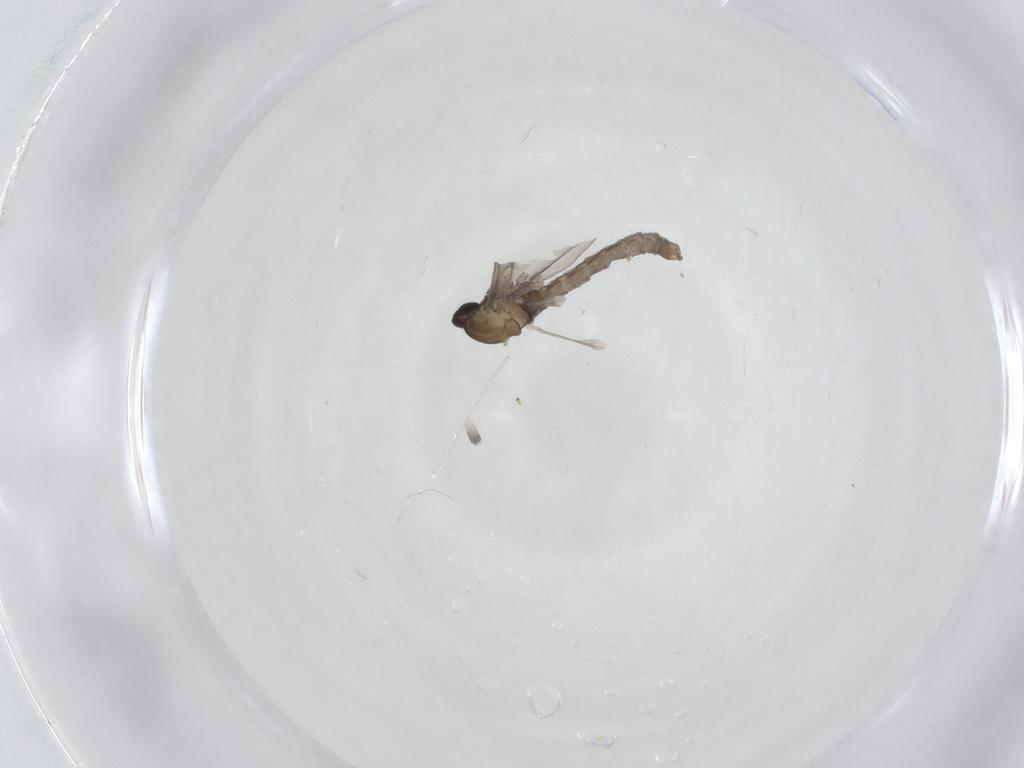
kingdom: Animalia
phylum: Arthropoda
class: Insecta
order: Diptera
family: Cecidomyiidae
